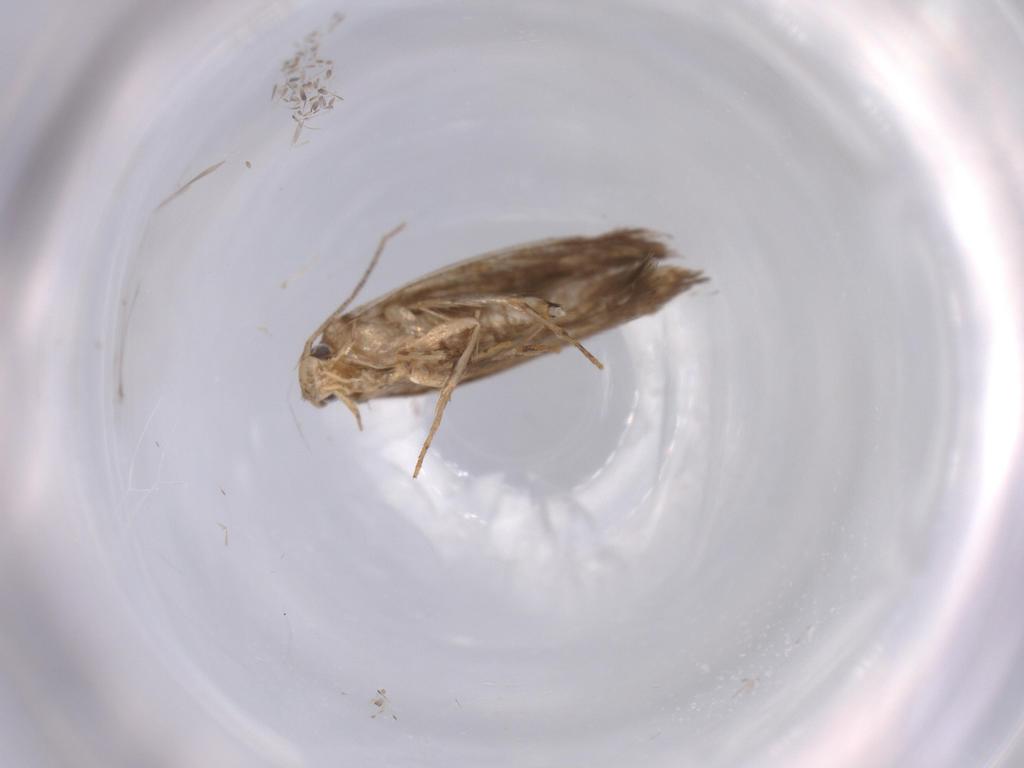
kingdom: Animalia
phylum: Arthropoda
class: Insecta
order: Lepidoptera
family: Tineidae
